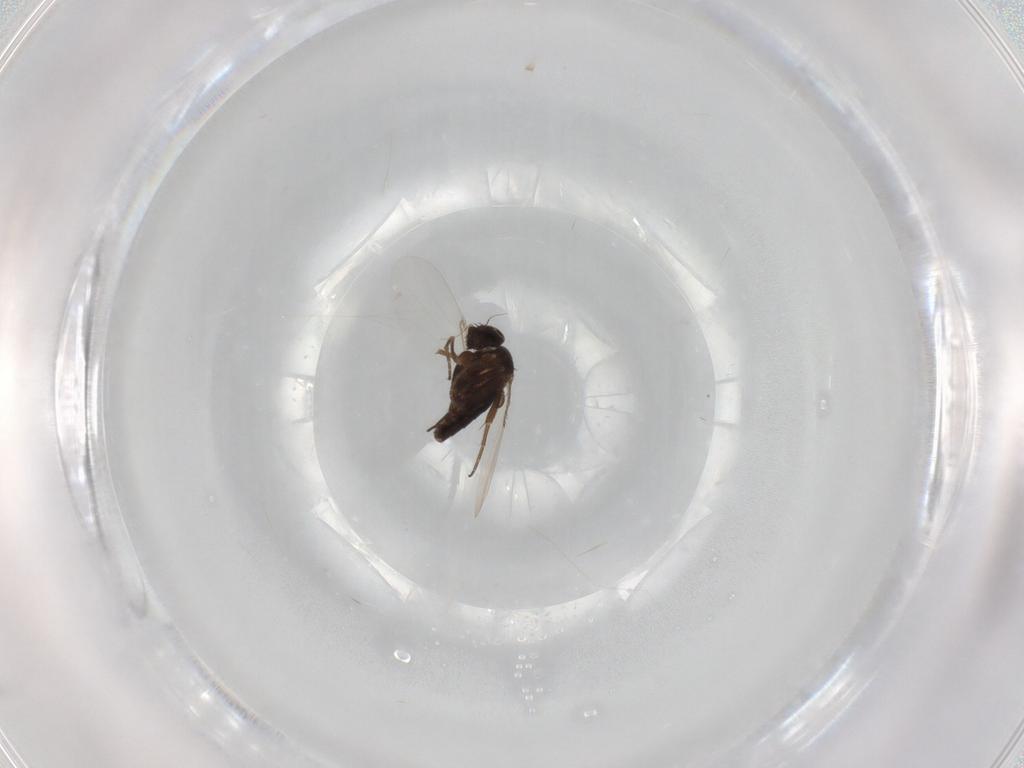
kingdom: Animalia
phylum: Arthropoda
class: Insecta
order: Diptera
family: Phoridae
